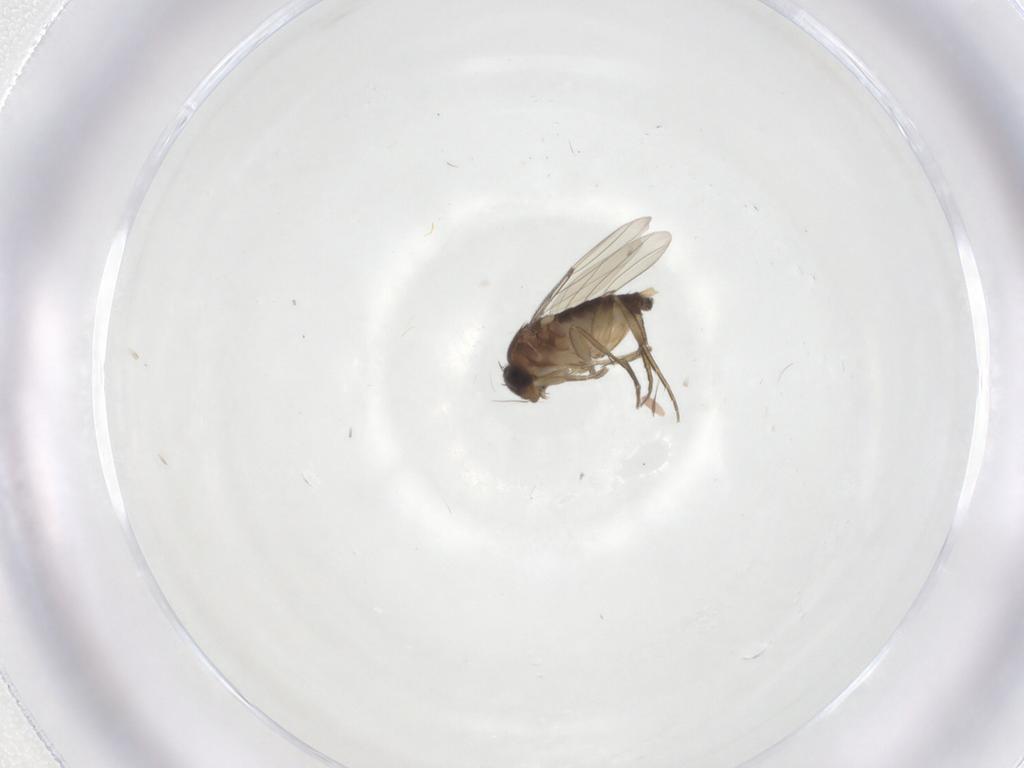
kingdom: Animalia
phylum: Arthropoda
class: Insecta
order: Diptera
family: Phoridae
